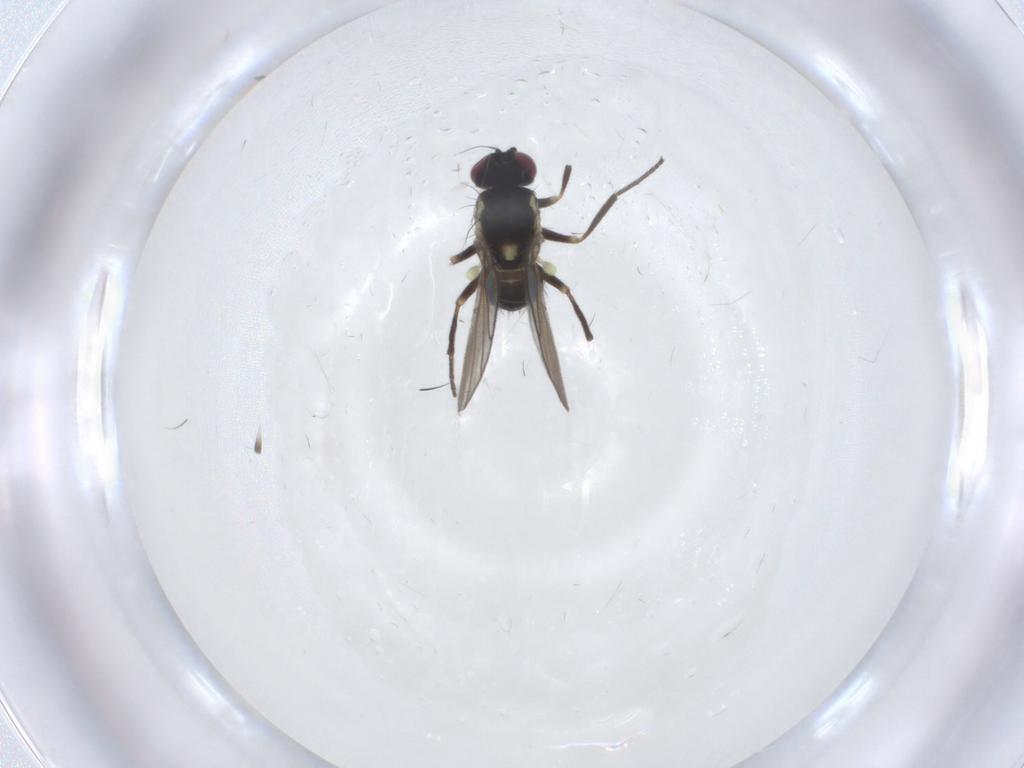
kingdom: Animalia
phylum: Arthropoda
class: Insecta
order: Diptera
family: Agromyzidae
